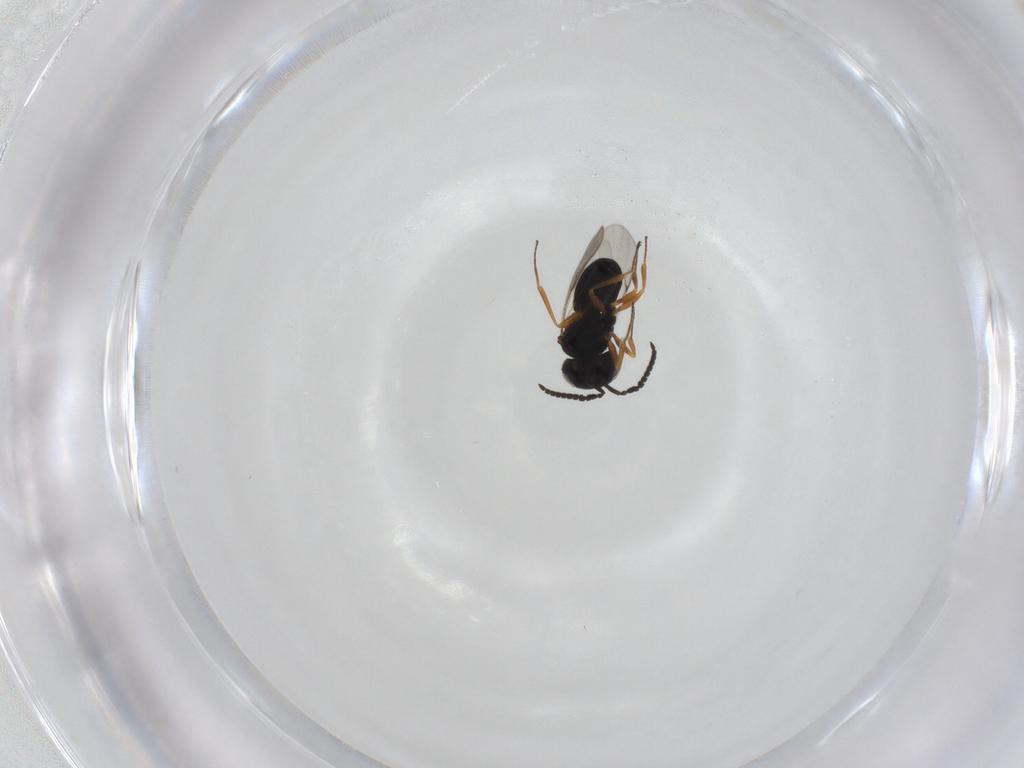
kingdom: Animalia
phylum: Arthropoda
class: Insecta
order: Hymenoptera
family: Scelionidae
